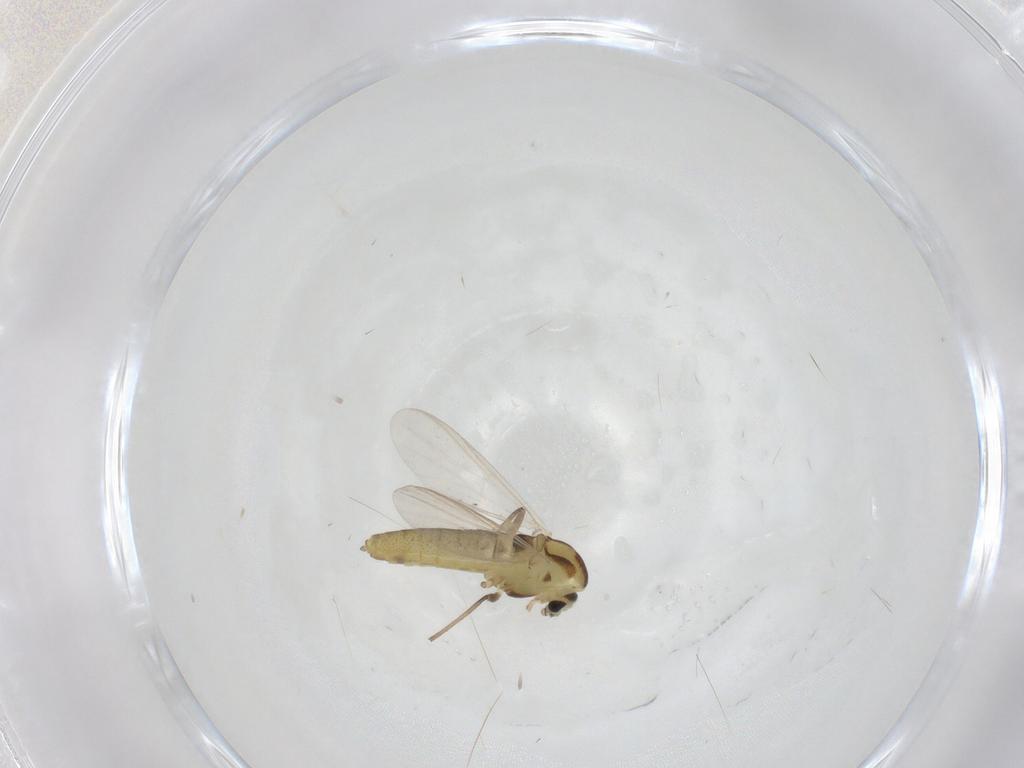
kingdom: Animalia
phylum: Arthropoda
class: Insecta
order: Diptera
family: Chironomidae
